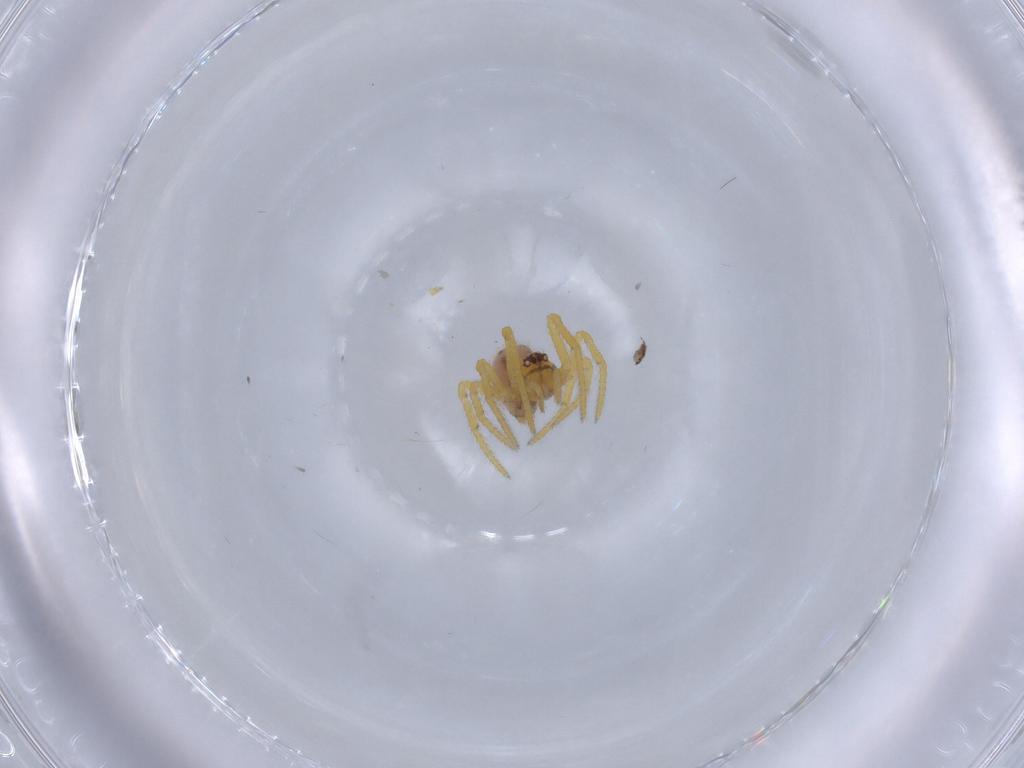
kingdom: Animalia
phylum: Arthropoda
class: Arachnida
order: Araneae
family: Theridiidae
